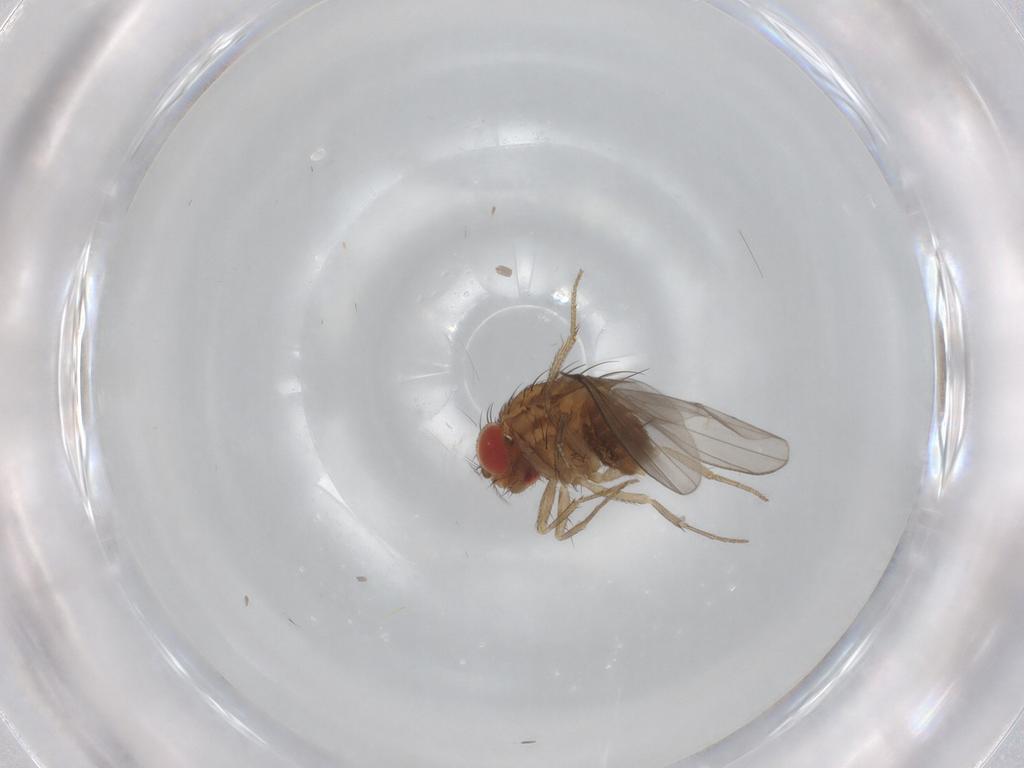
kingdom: Animalia
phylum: Arthropoda
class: Insecta
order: Diptera
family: Drosophilidae
